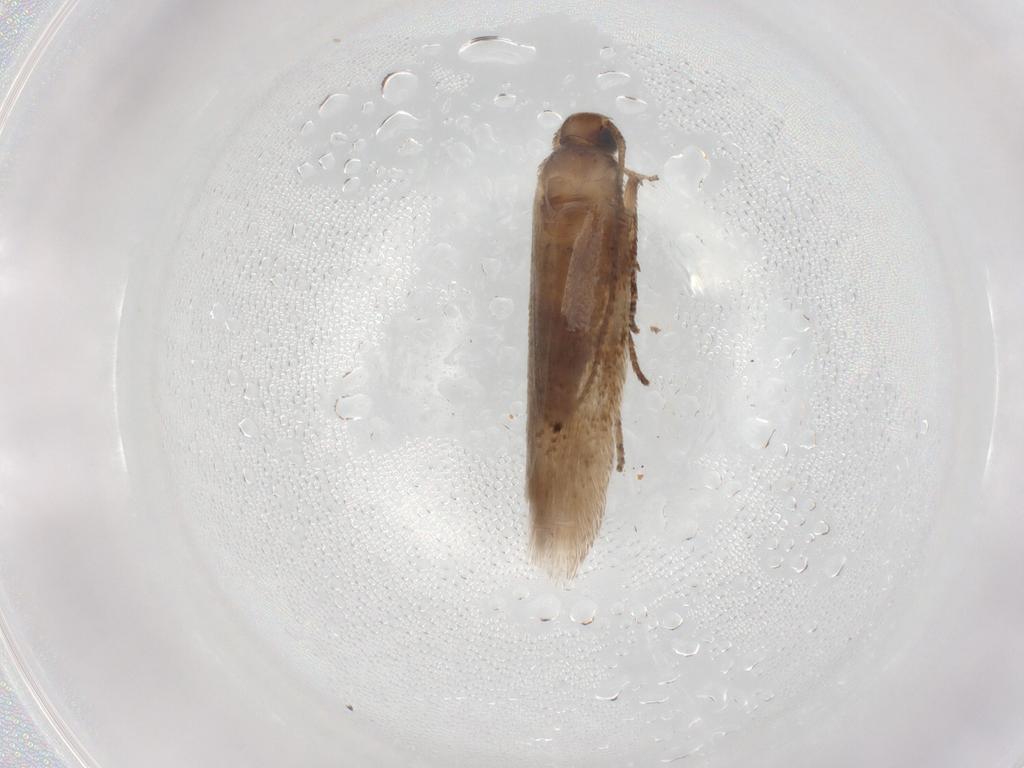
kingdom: Animalia
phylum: Arthropoda
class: Insecta
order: Lepidoptera
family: Gelechiidae
